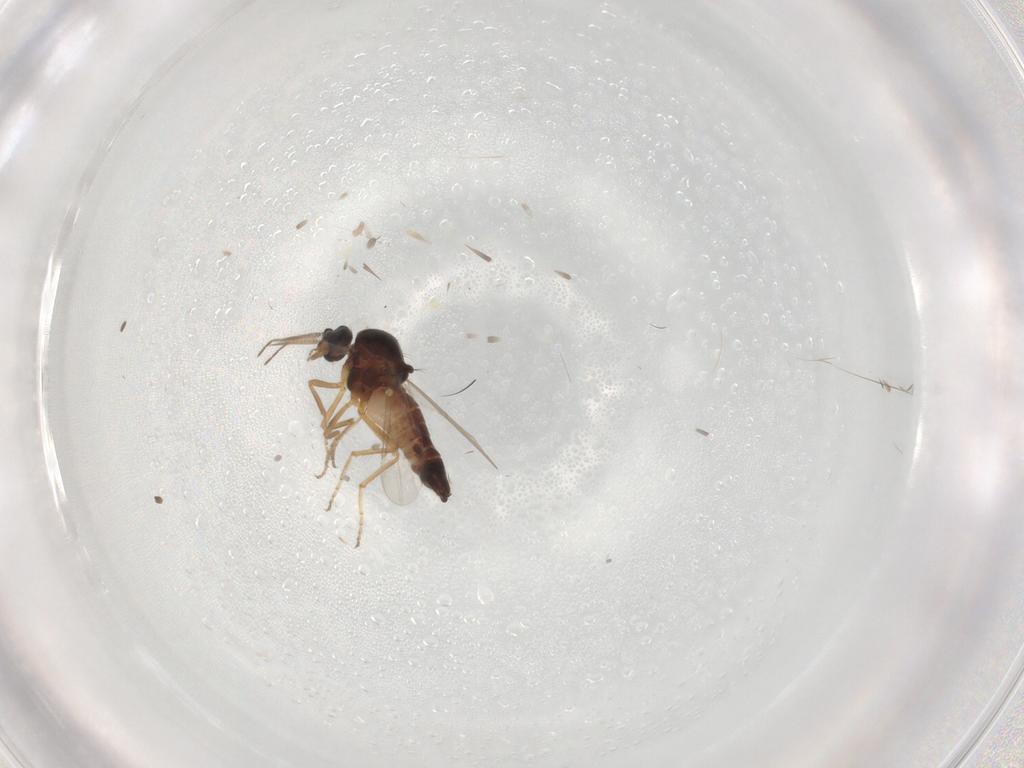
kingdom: Animalia
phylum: Arthropoda
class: Insecta
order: Diptera
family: Ceratopogonidae
